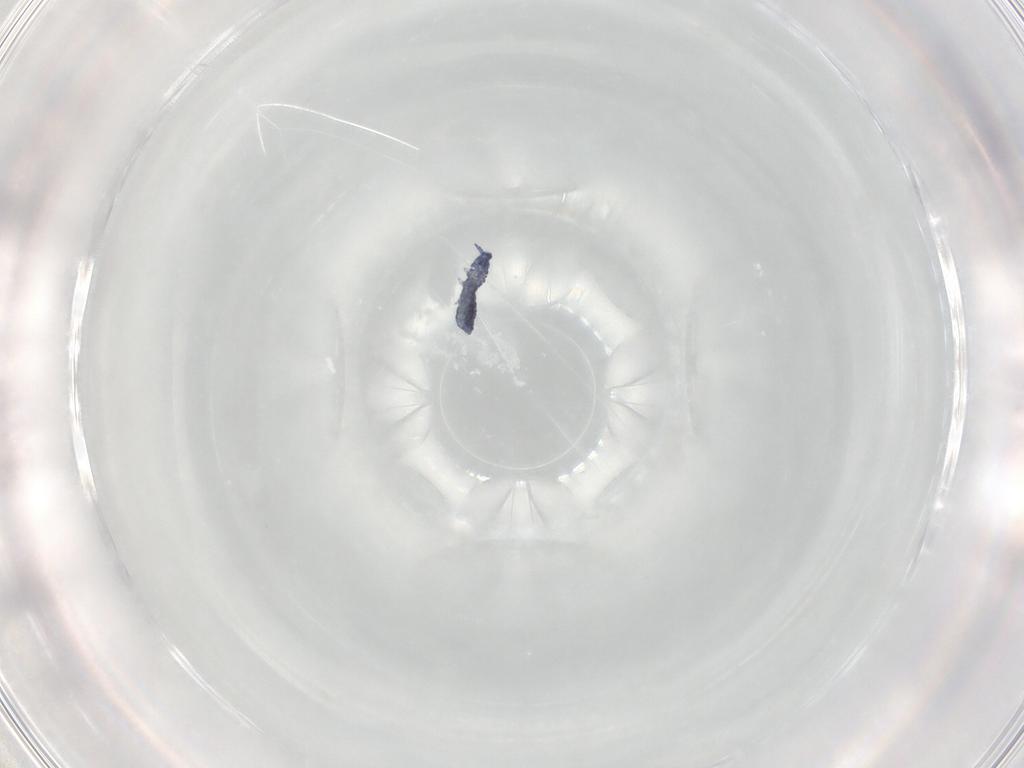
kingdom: Animalia
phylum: Arthropoda
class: Collembola
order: Poduromorpha
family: Hypogastruridae
